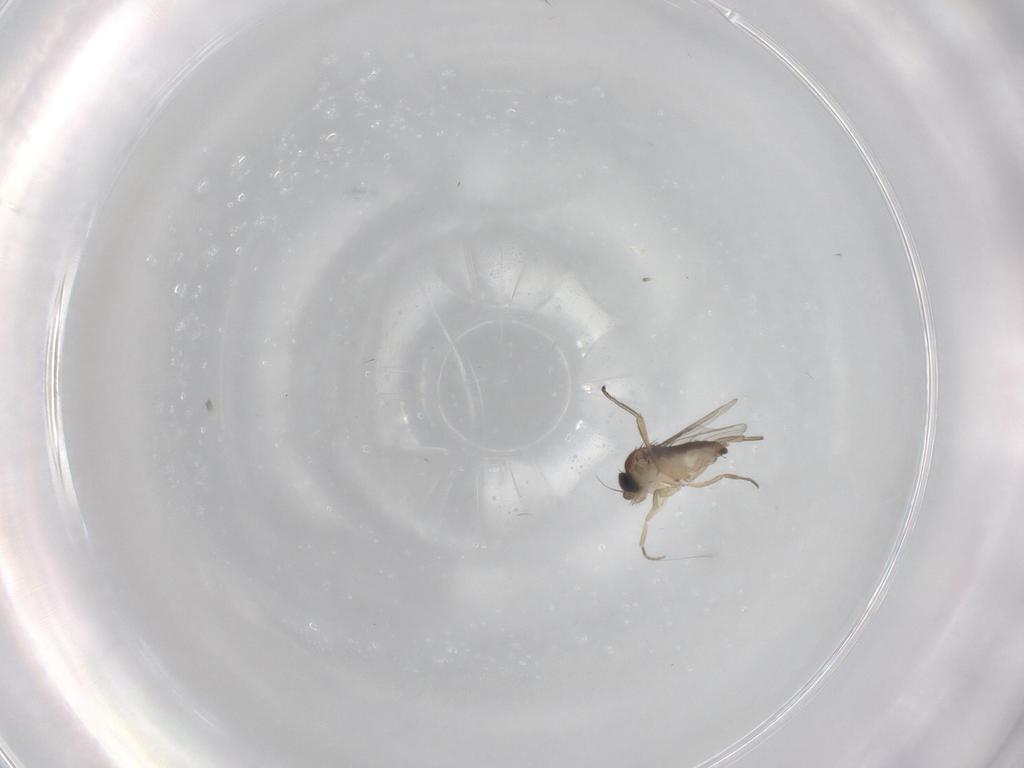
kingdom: Animalia
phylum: Arthropoda
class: Insecta
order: Diptera
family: Phoridae
